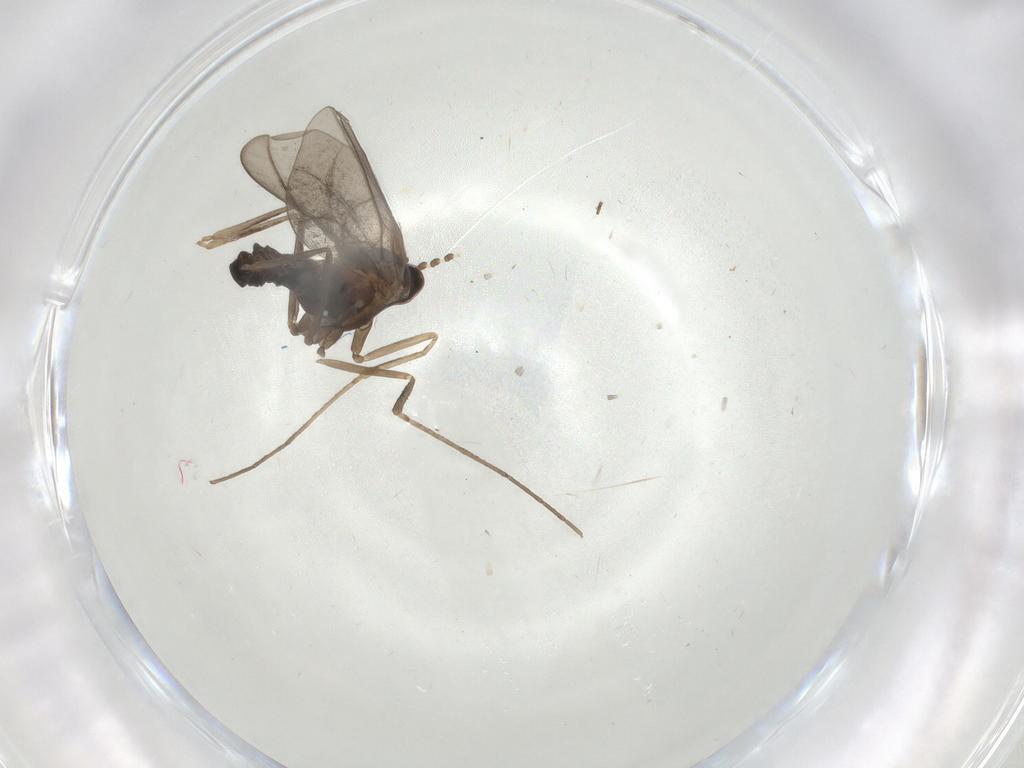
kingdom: Animalia
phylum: Arthropoda
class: Insecta
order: Diptera
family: Cecidomyiidae
